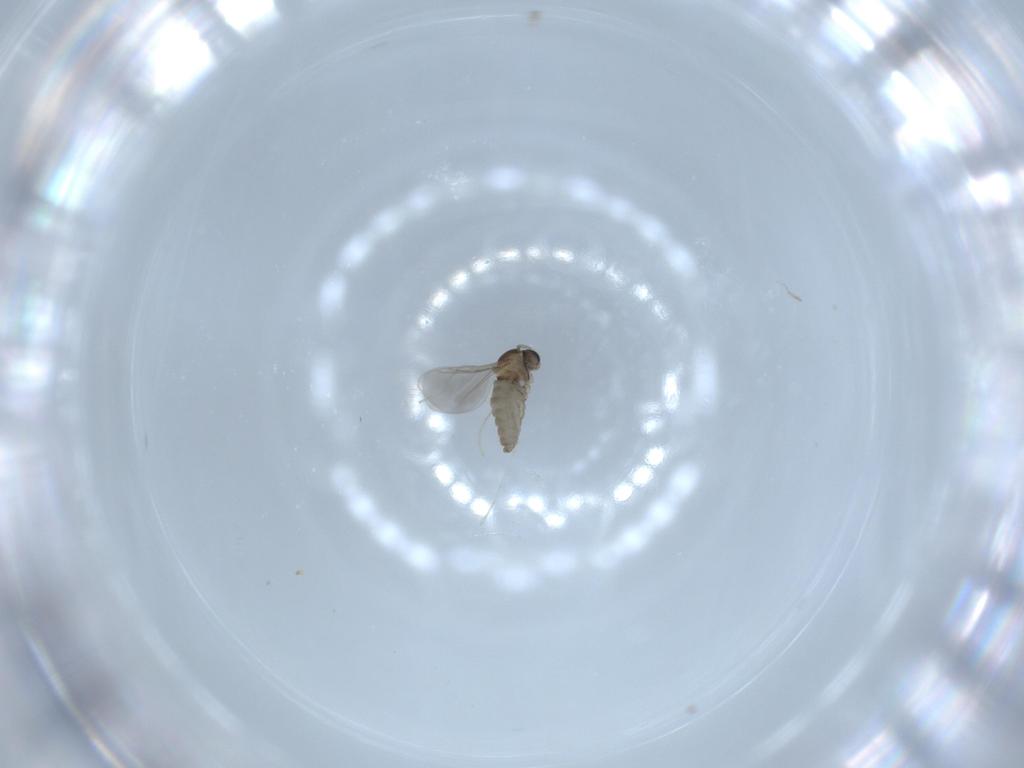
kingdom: Animalia
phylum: Arthropoda
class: Insecta
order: Diptera
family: Cecidomyiidae
